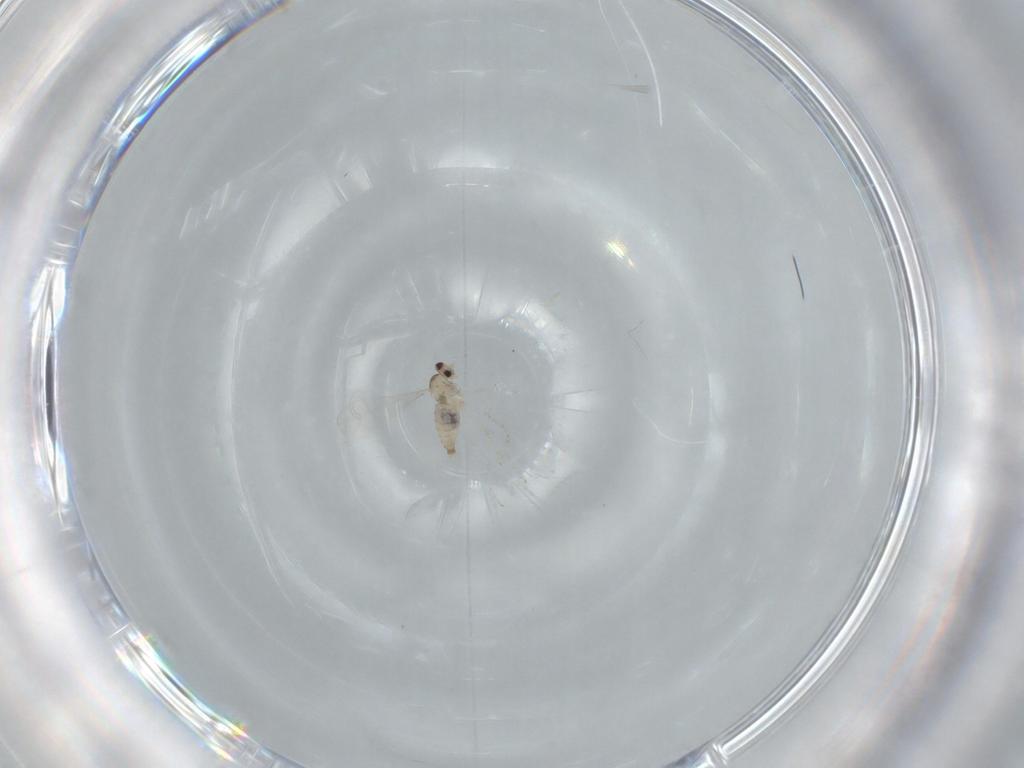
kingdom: Animalia
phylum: Arthropoda
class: Insecta
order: Diptera
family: Cecidomyiidae
